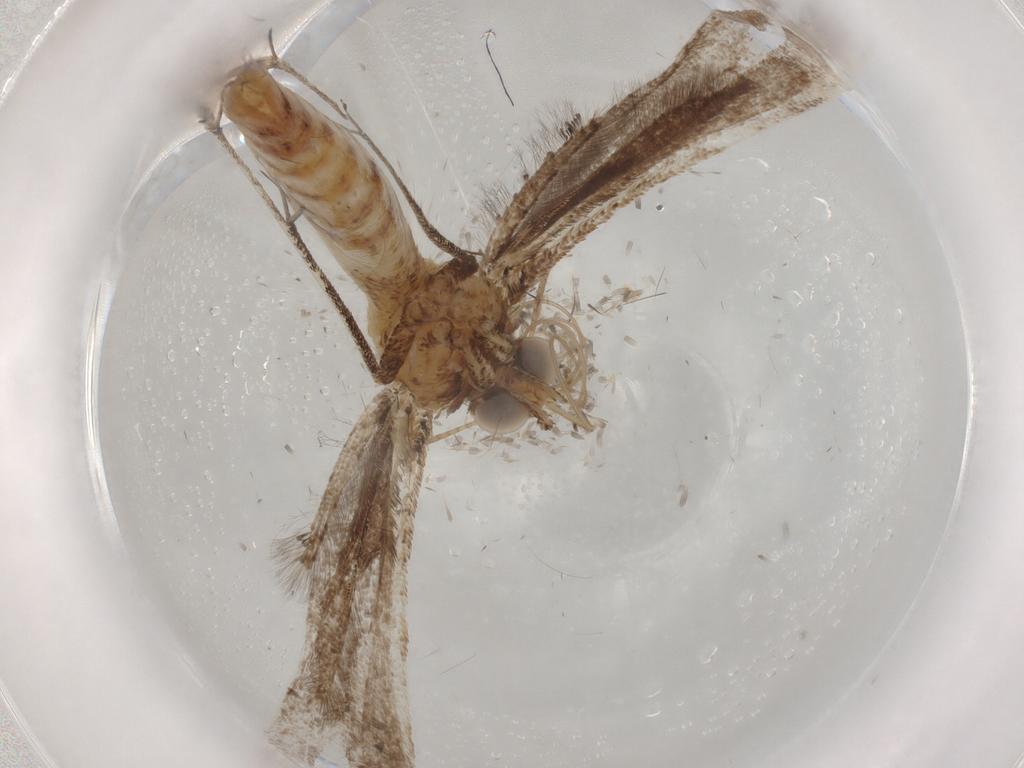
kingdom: Animalia
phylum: Arthropoda
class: Insecta
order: Lepidoptera
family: Elachistidae
